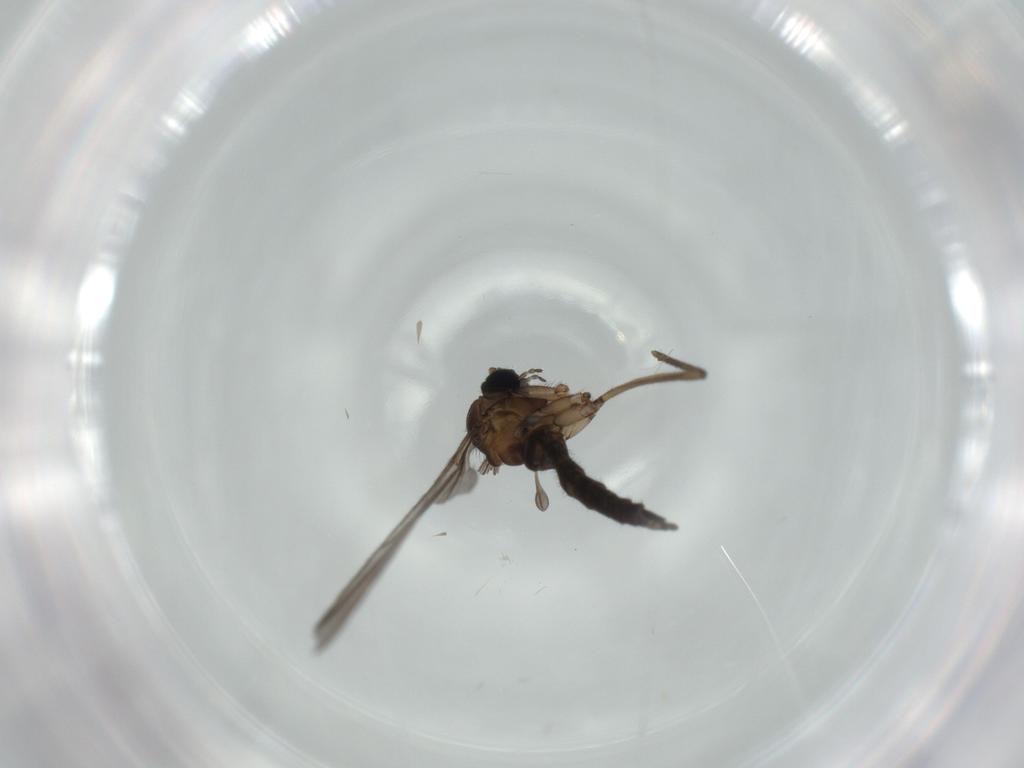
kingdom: Animalia
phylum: Arthropoda
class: Insecta
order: Diptera
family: Sciaridae
